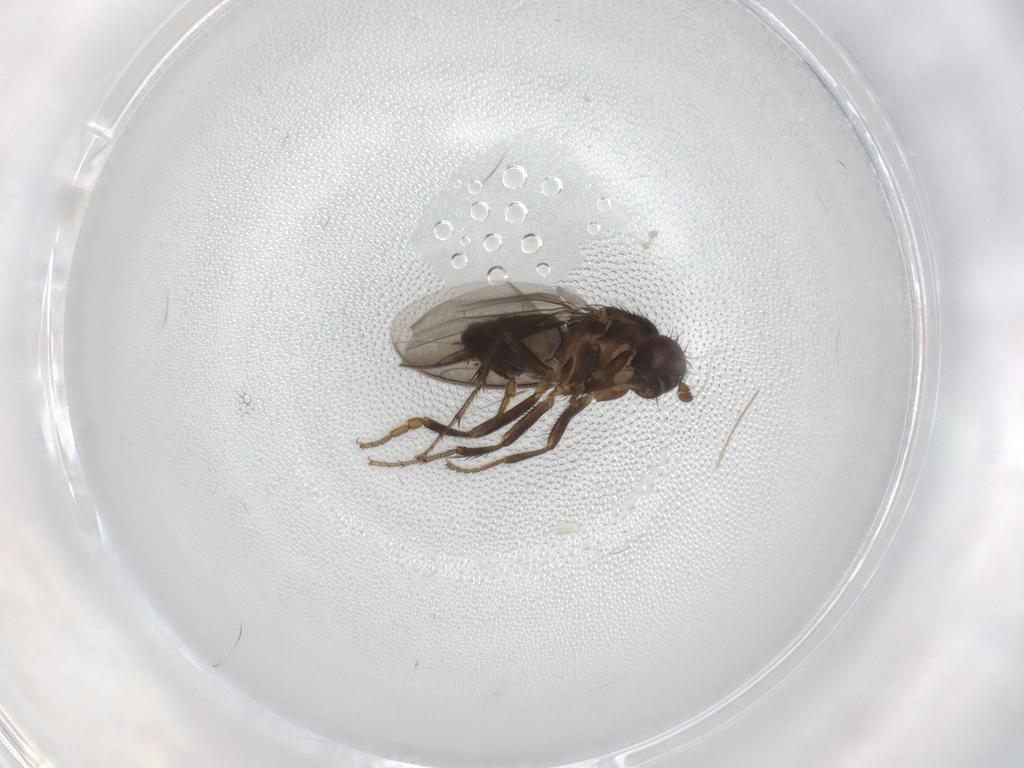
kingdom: Animalia
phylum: Arthropoda
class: Insecta
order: Diptera
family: Sphaeroceridae
